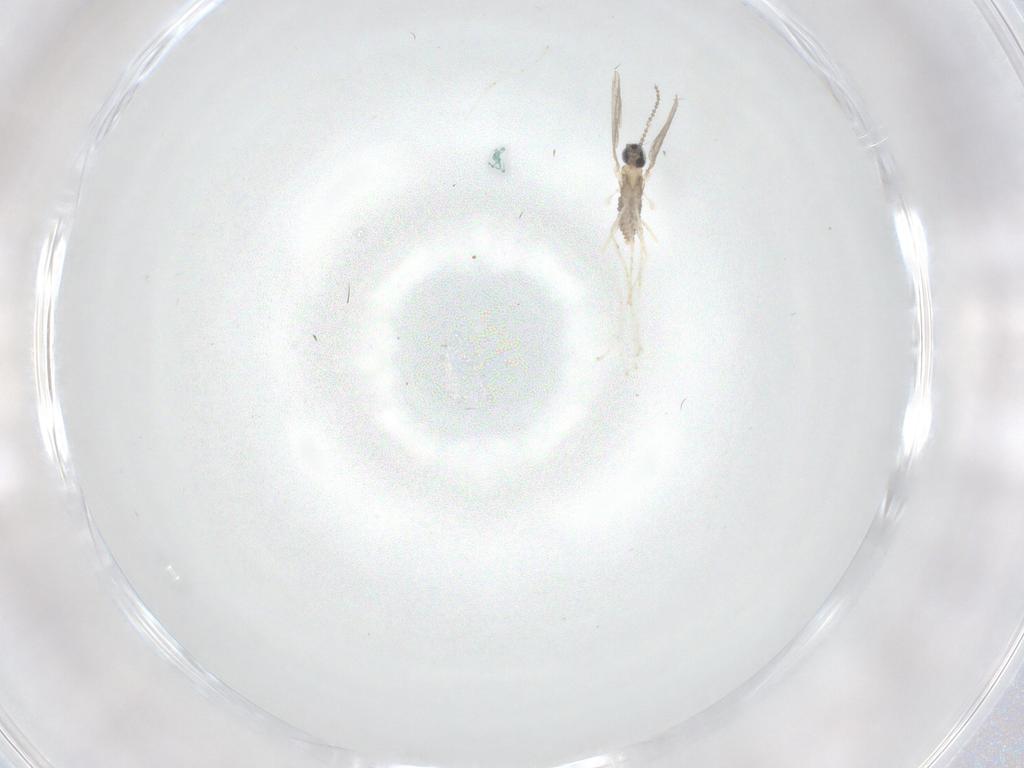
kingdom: Animalia
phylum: Arthropoda
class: Insecta
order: Diptera
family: Cecidomyiidae
